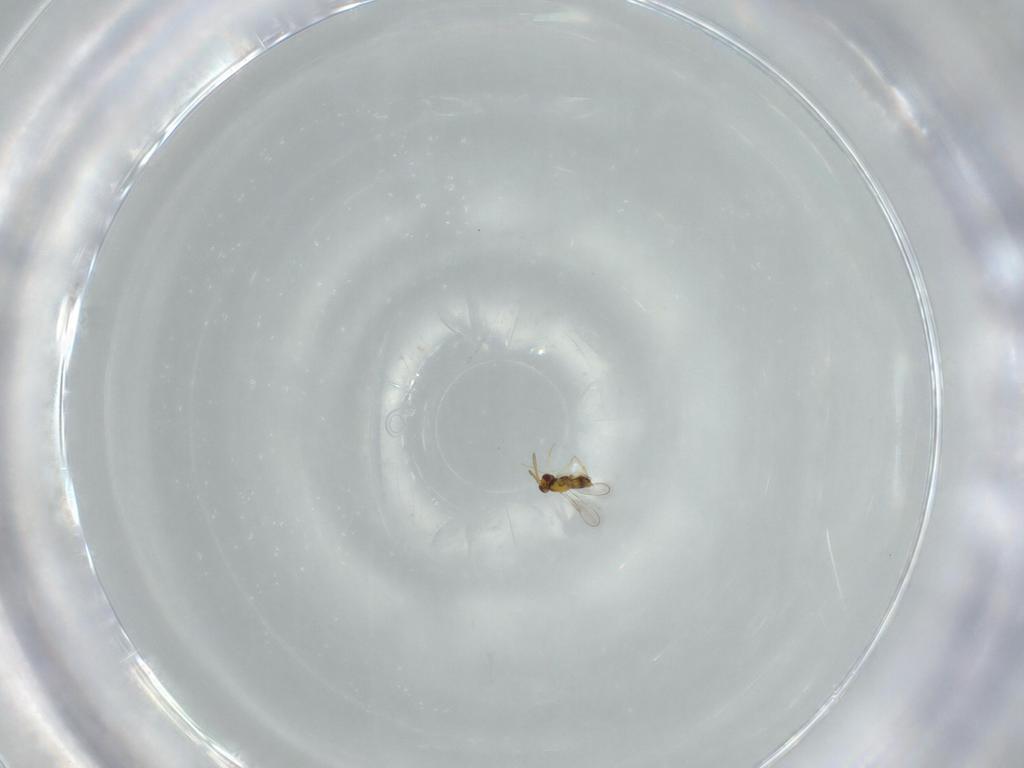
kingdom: Animalia
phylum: Arthropoda
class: Insecta
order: Hymenoptera
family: Aphelinidae
